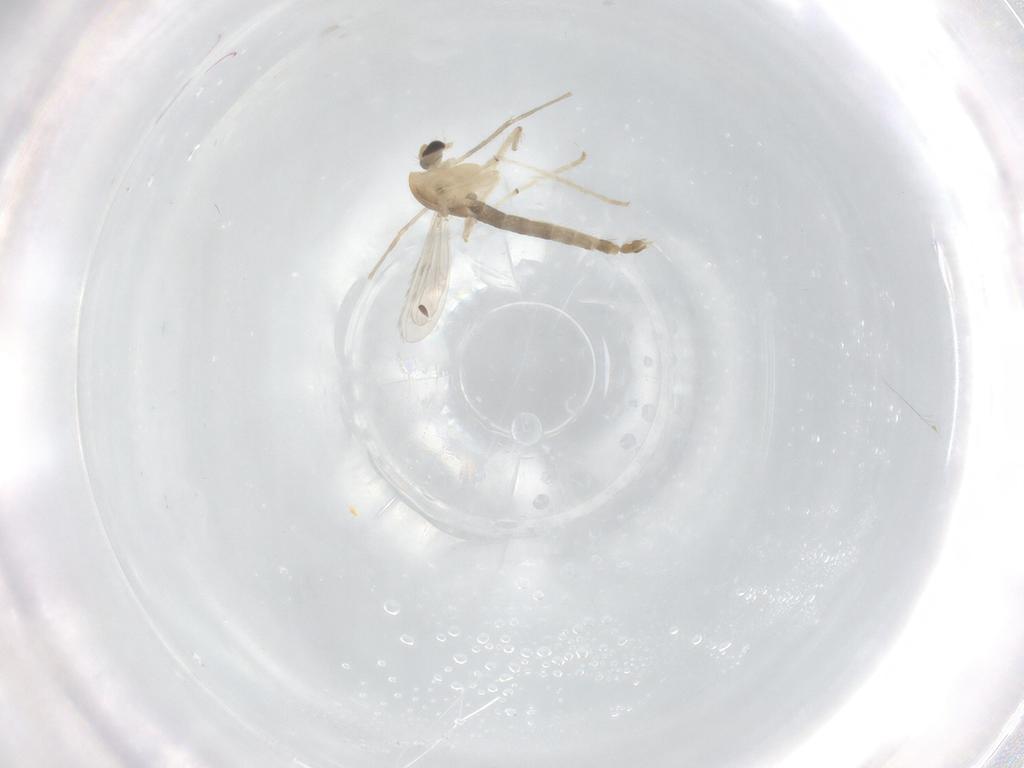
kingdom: Animalia
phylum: Arthropoda
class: Insecta
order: Diptera
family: Chironomidae
